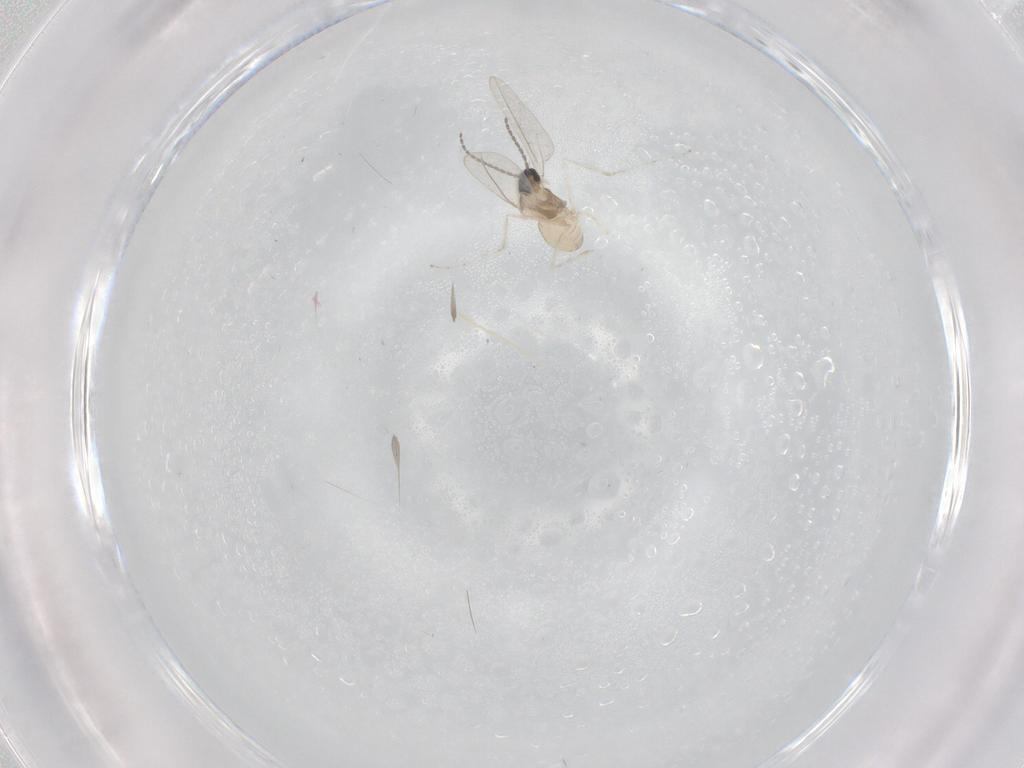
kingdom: Animalia
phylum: Arthropoda
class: Insecta
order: Diptera
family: Cecidomyiidae
